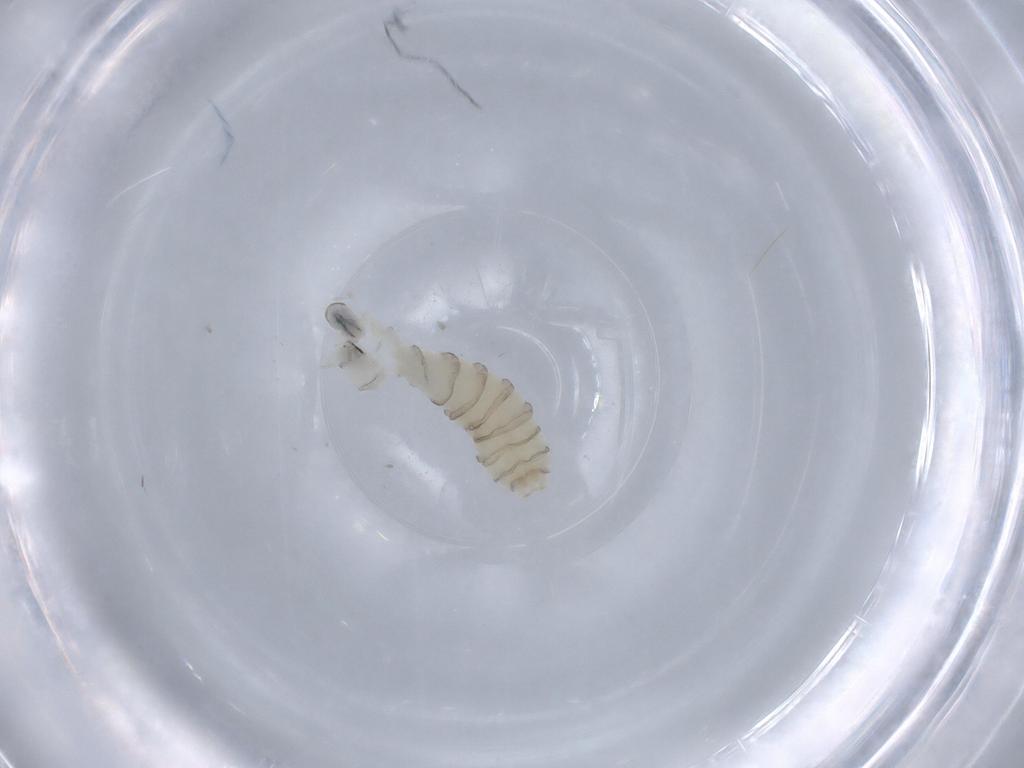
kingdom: Animalia
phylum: Arthropoda
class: Insecta
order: Diptera
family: Sarcophagidae
